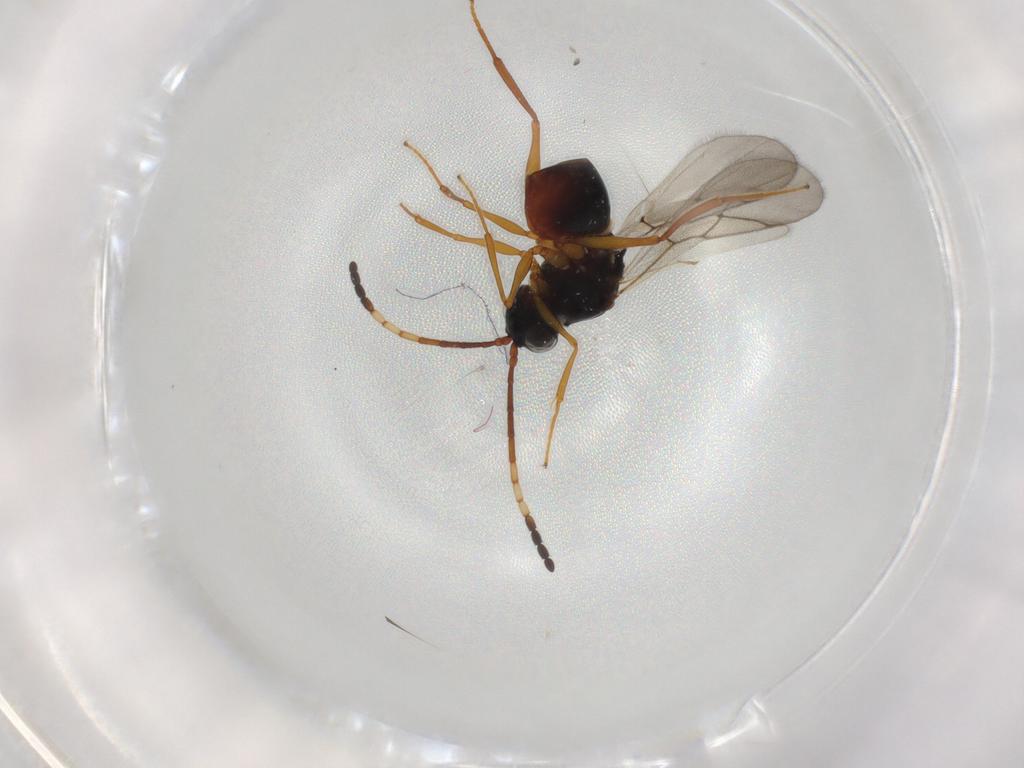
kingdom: Animalia
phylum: Arthropoda
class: Insecta
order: Hymenoptera
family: Figitidae
